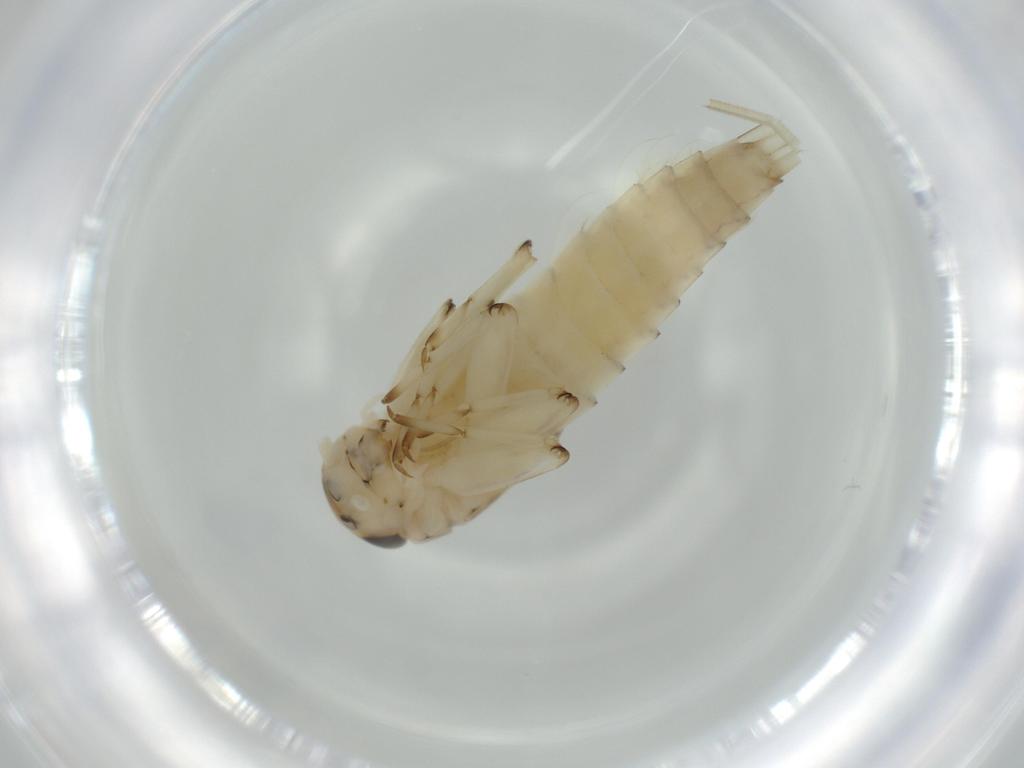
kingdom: Animalia
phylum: Arthropoda
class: Insecta
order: Ephemeroptera
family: Baetidae
